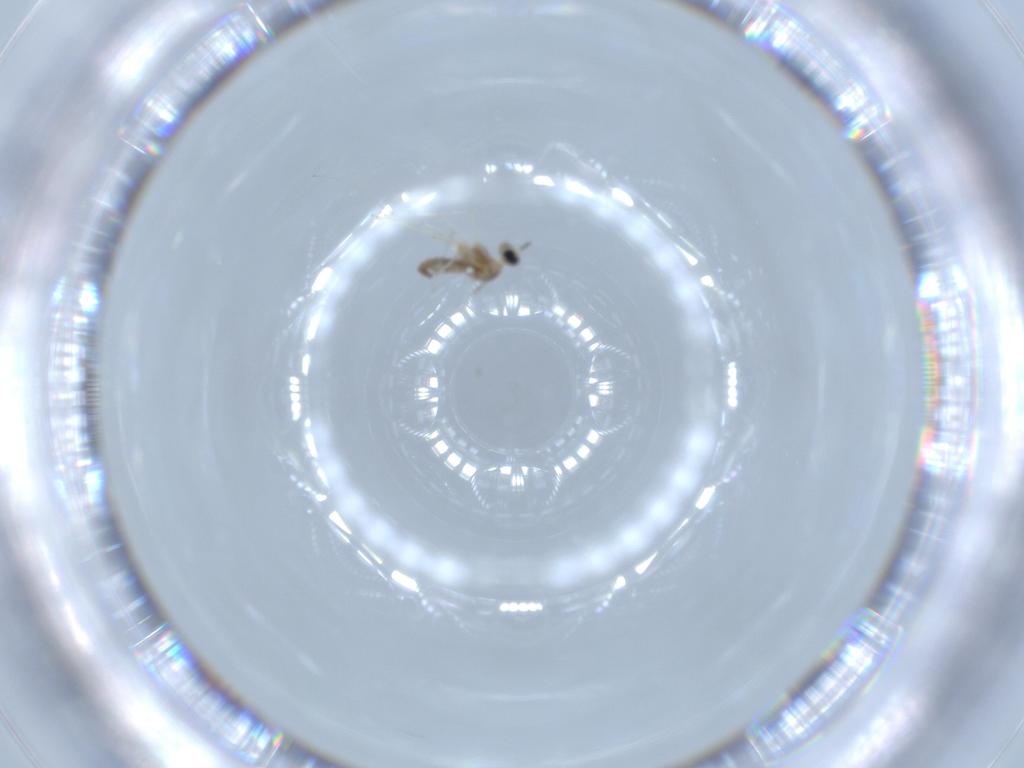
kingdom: Animalia
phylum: Arthropoda
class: Insecta
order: Diptera
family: Cecidomyiidae
